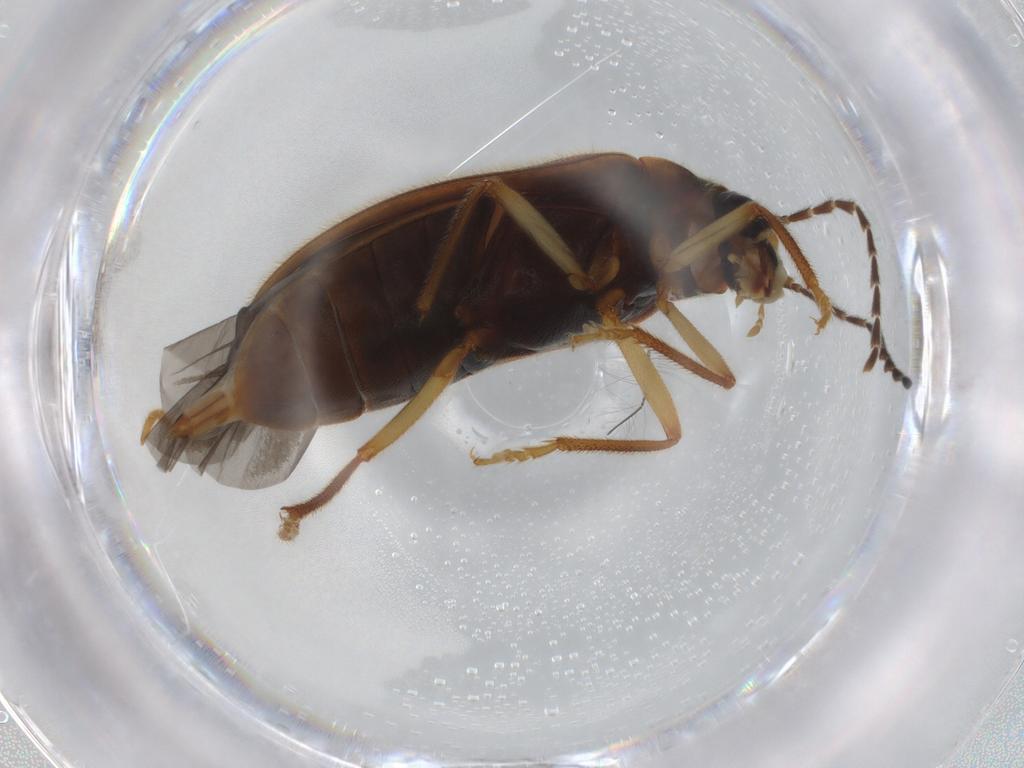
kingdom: Animalia
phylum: Arthropoda
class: Insecta
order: Coleoptera
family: Ptilodactylidae
